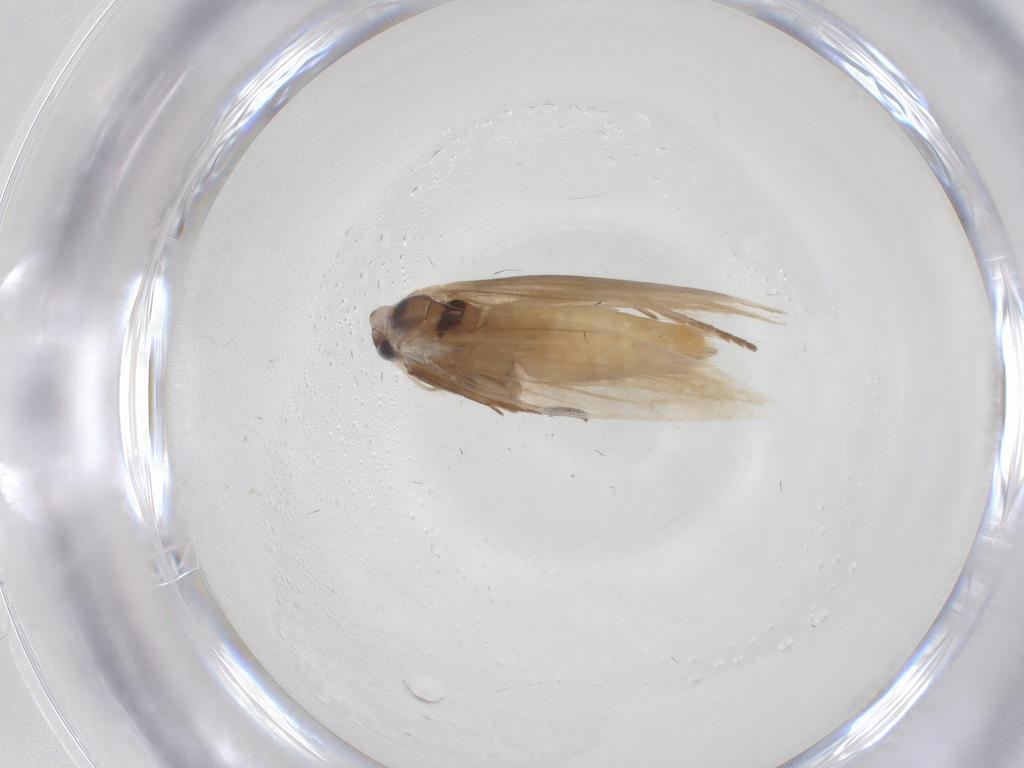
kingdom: Animalia
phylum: Arthropoda
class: Insecta
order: Lepidoptera
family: Bucculatricidae
